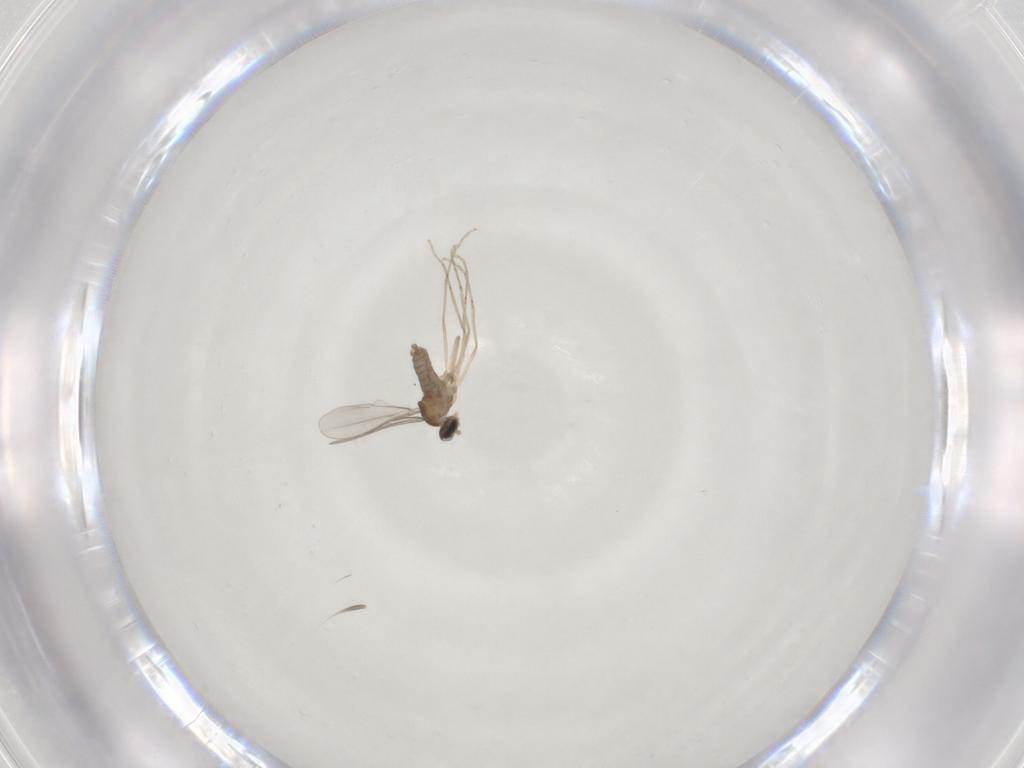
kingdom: Animalia
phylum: Arthropoda
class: Insecta
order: Diptera
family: Cecidomyiidae
